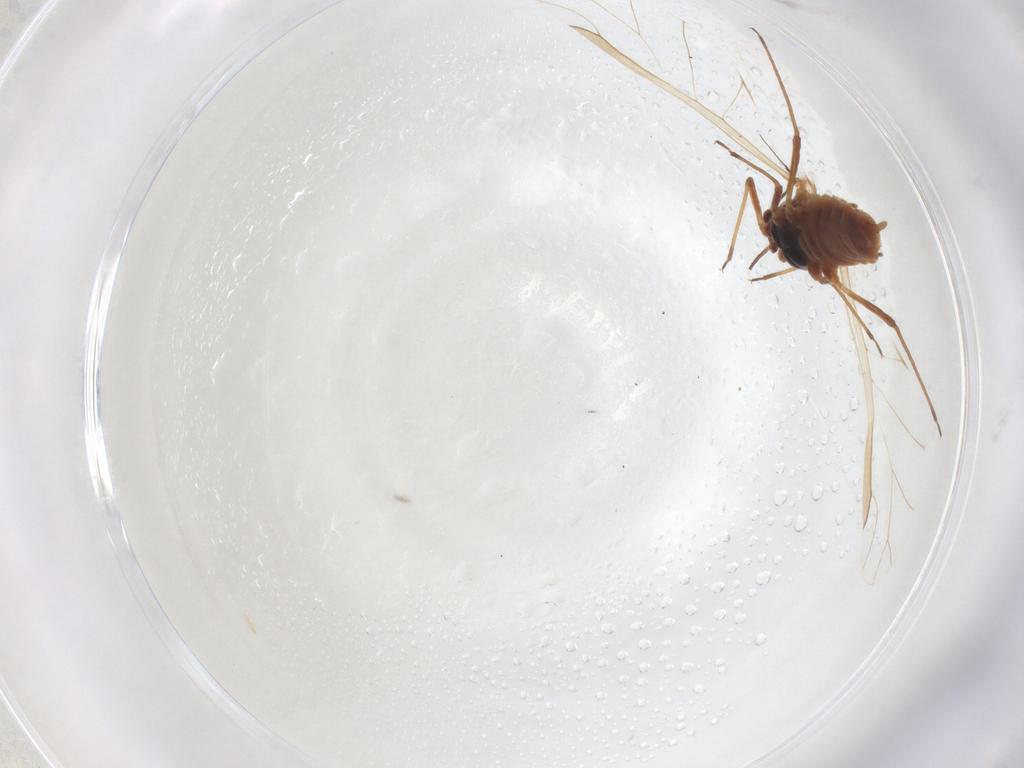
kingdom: Animalia
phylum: Arthropoda
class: Insecta
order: Hemiptera
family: Aphididae
